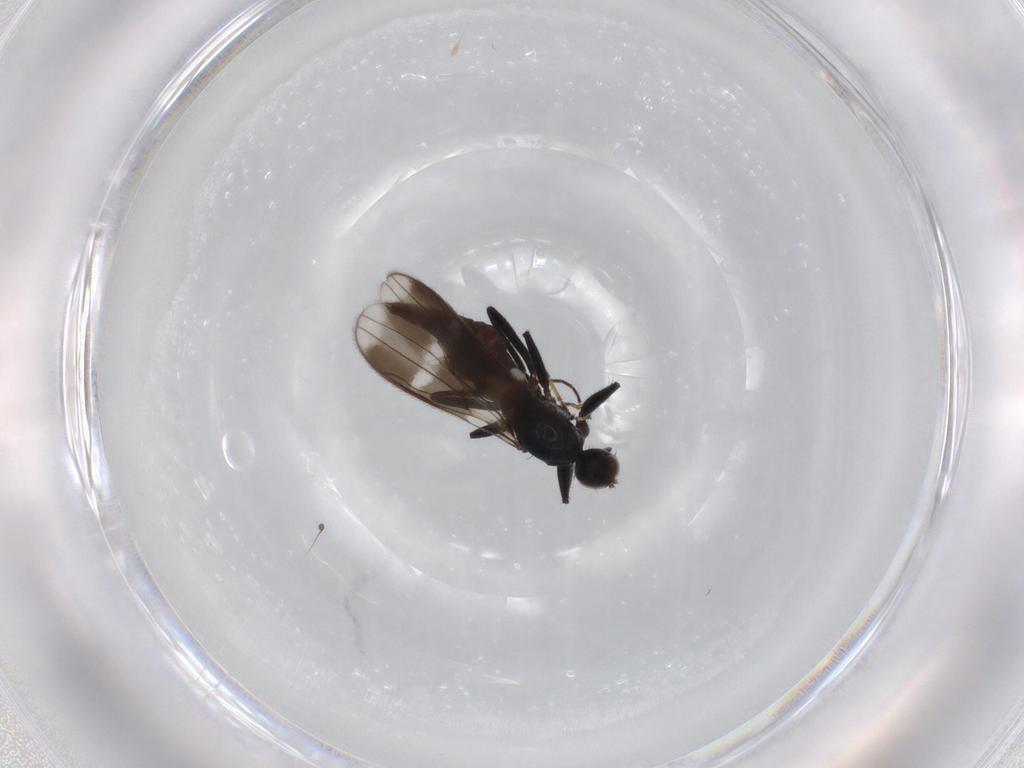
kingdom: Animalia
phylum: Arthropoda
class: Insecta
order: Diptera
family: Hybotidae
